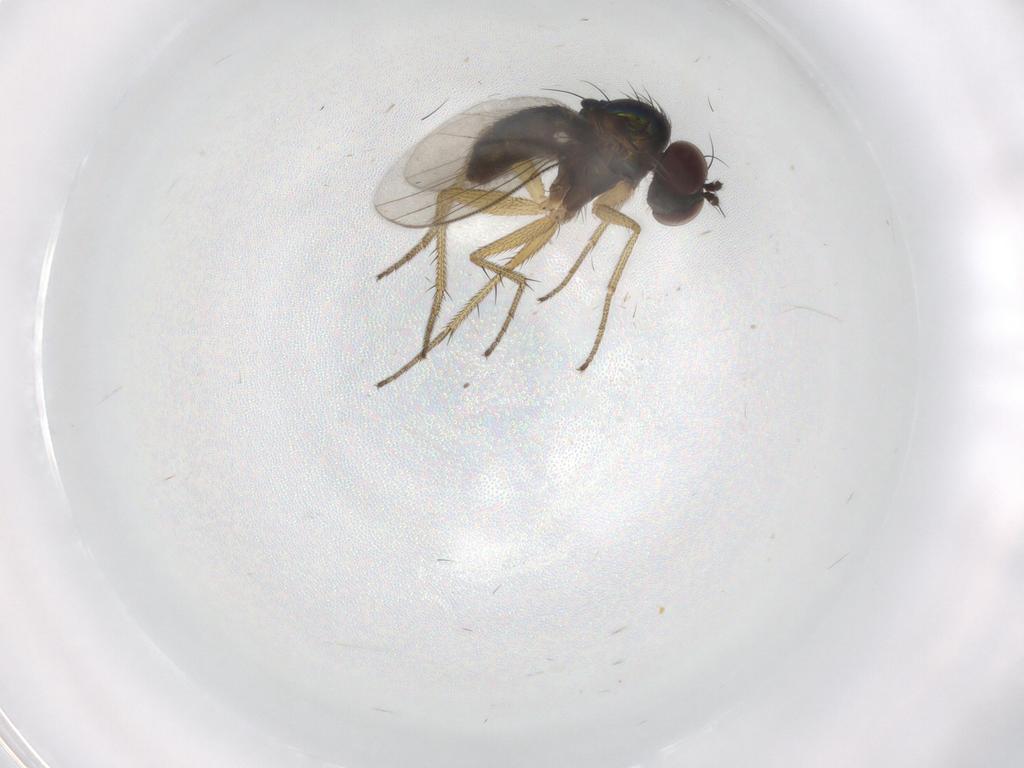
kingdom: Animalia
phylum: Arthropoda
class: Insecta
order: Diptera
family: Dolichopodidae
